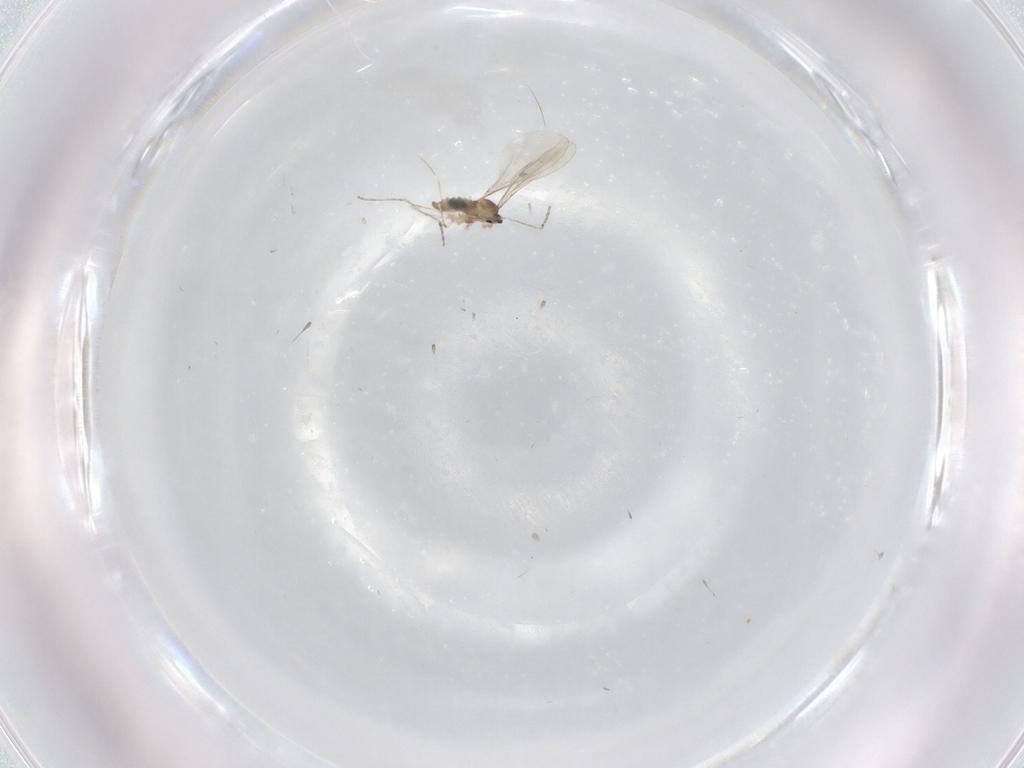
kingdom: Animalia
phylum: Arthropoda
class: Insecta
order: Diptera
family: Cecidomyiidae
